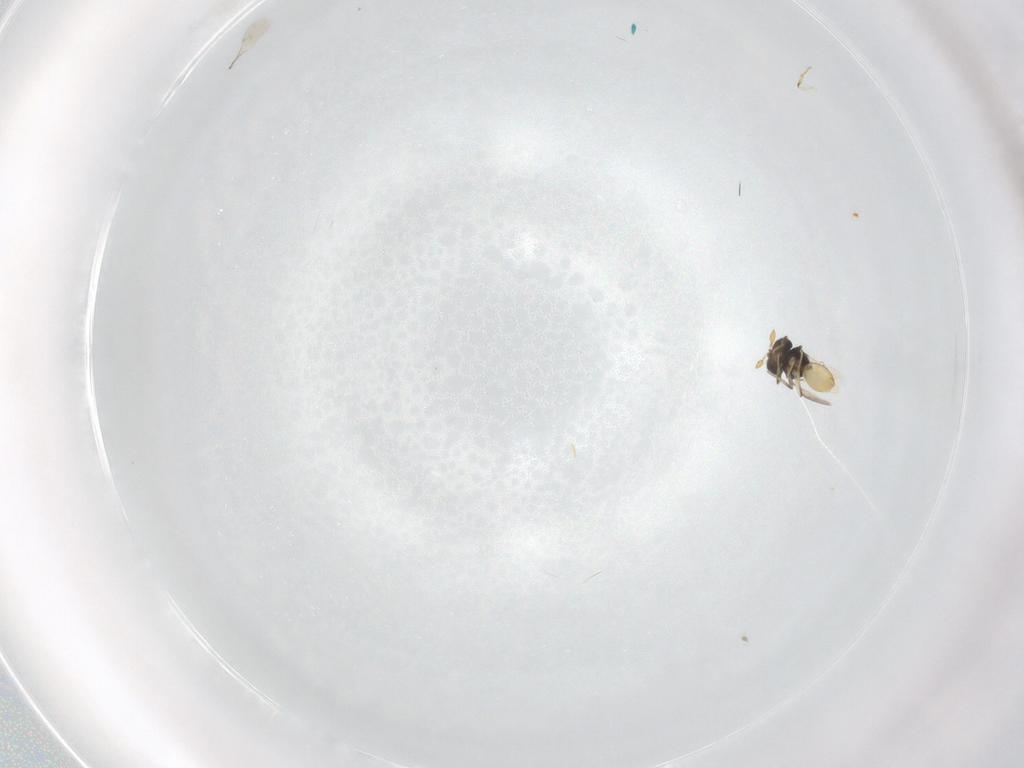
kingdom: Animalia
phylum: Arthropoda
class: Insecta
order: Hymenoptera
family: Scelionidae
